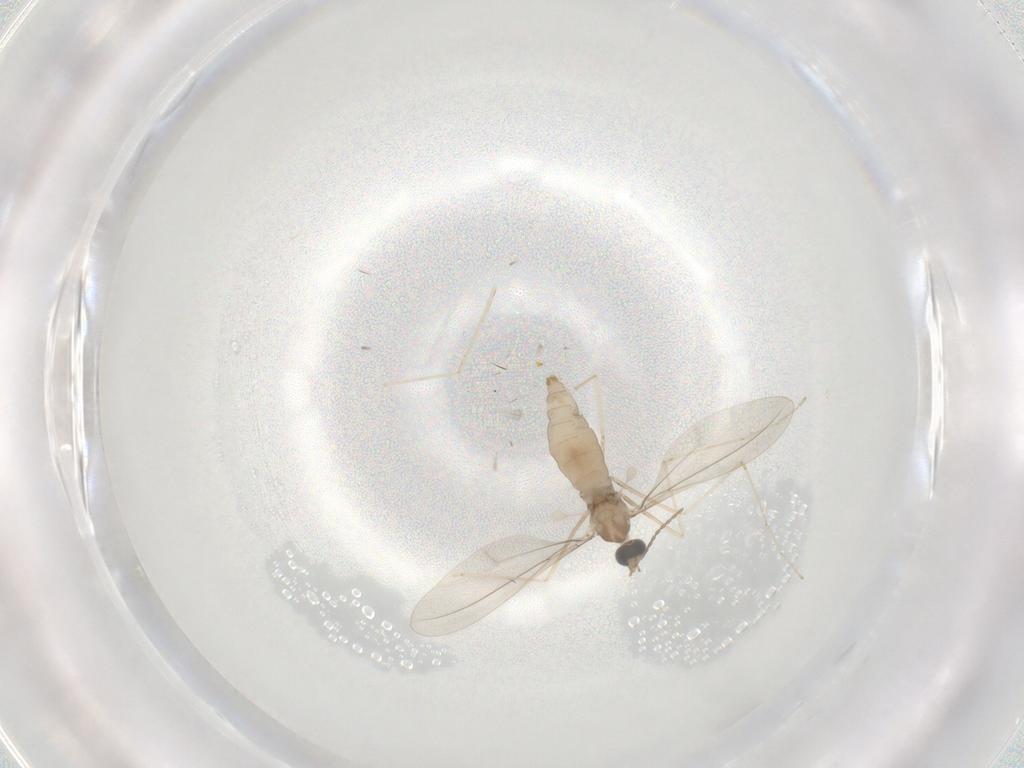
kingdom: Animalia
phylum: Arthropoda
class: Insecta
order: Diptera
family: Cecidomyiidae
